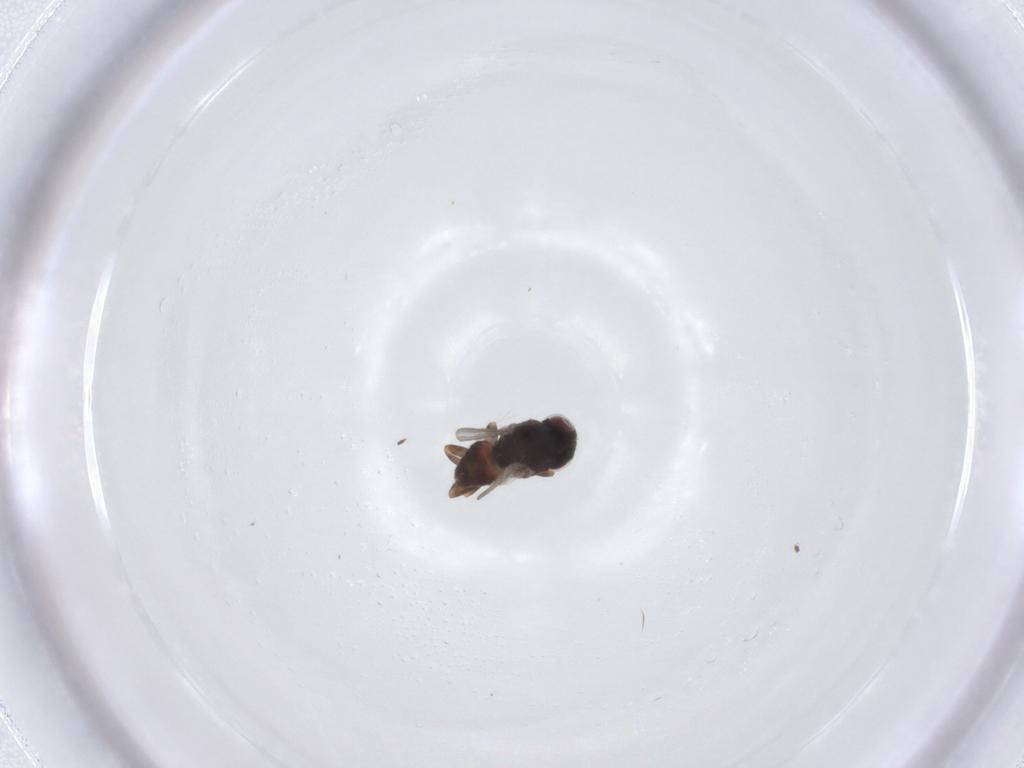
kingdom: Animalia
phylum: Arthropoda
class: Insecta
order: Diptera
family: Chloropidae
